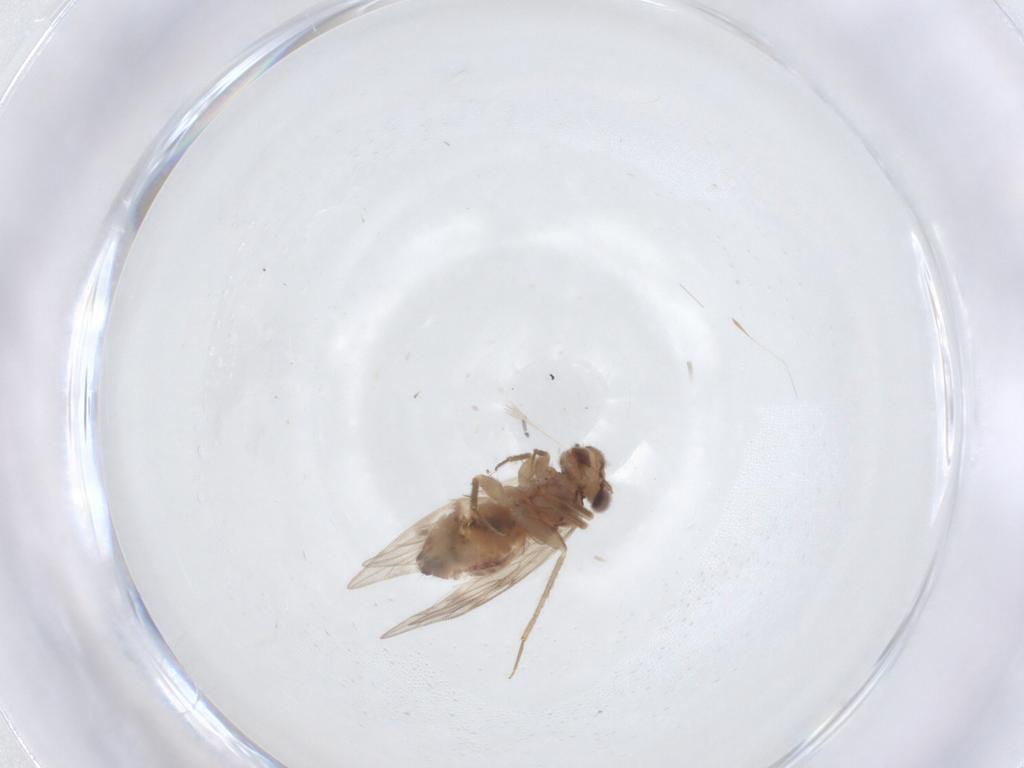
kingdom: Animalia
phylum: Arthropoda
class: Insecta
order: Psocodea
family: Lepidopsocidae
